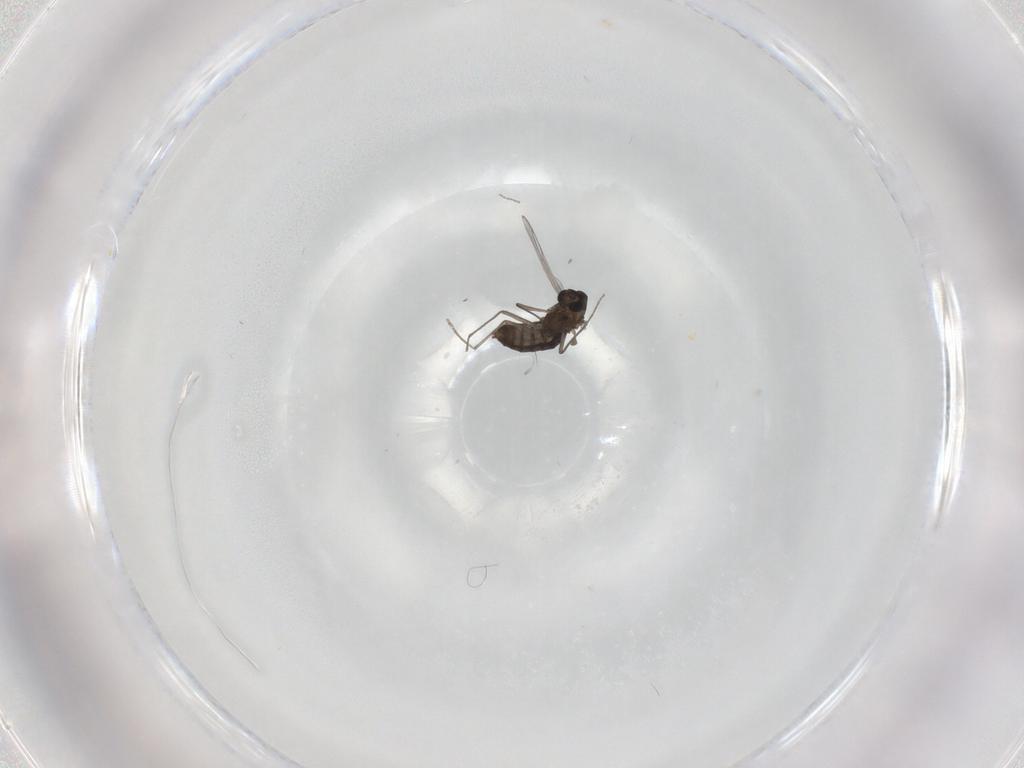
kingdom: Animalia
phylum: Arthropoda
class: Insecta
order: Diptera
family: Chironomidae
